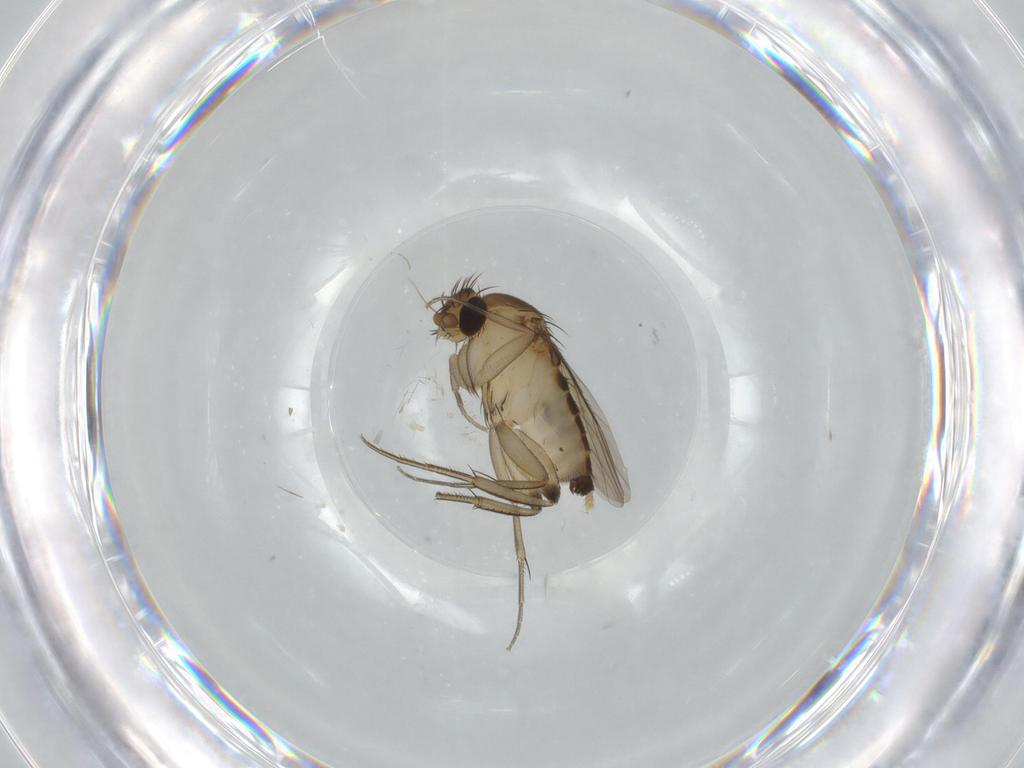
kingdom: Animalia
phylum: Arthropoda
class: Insecta
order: Diptera
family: Phoridae
